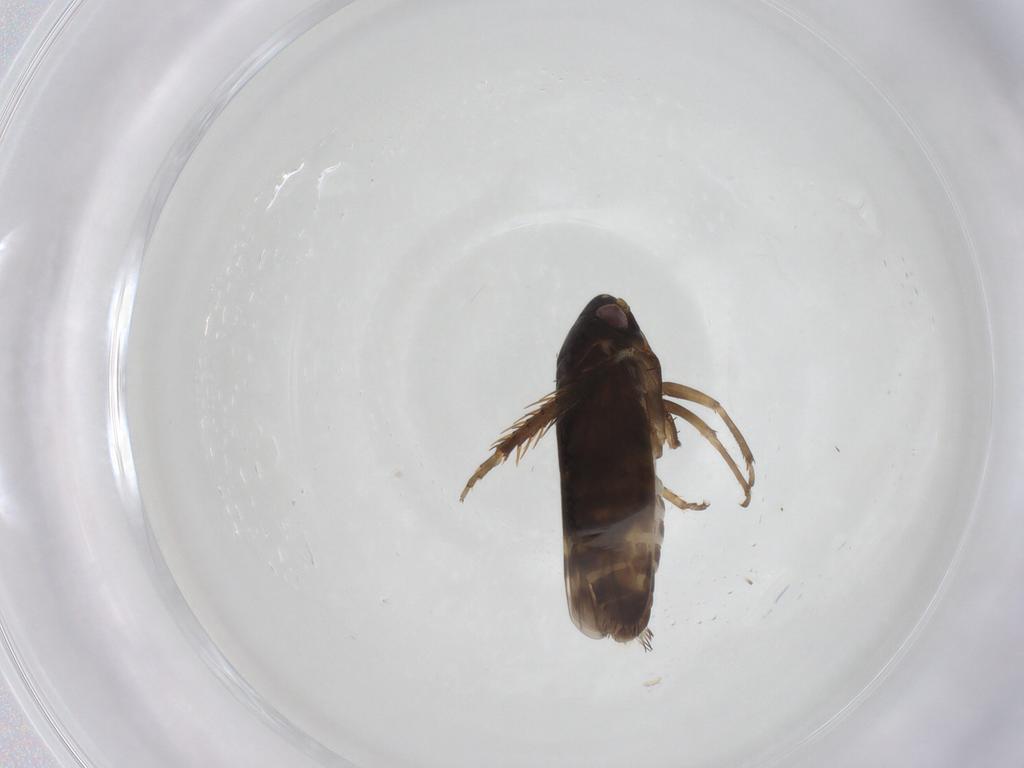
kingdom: Animalia
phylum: Arthropoda
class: Insecta
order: Hemiptera
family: Cicadellidae
